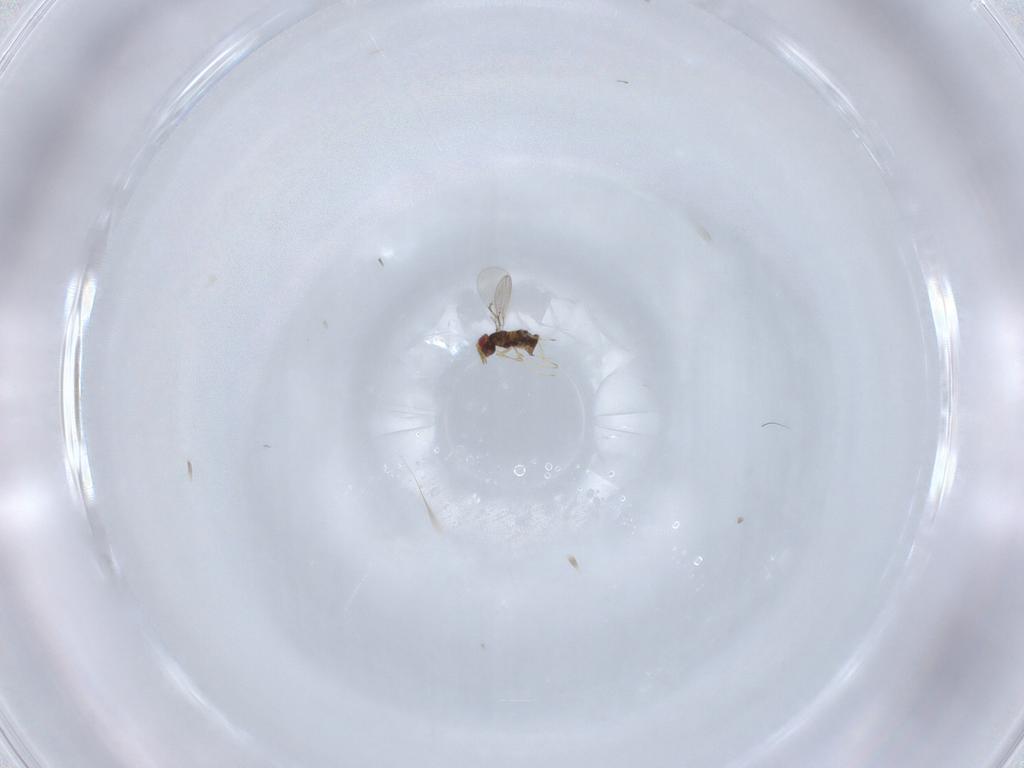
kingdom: Animalia
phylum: Arthropoda
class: Insecta
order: Hymenoptera
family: Trichogrammatidae
